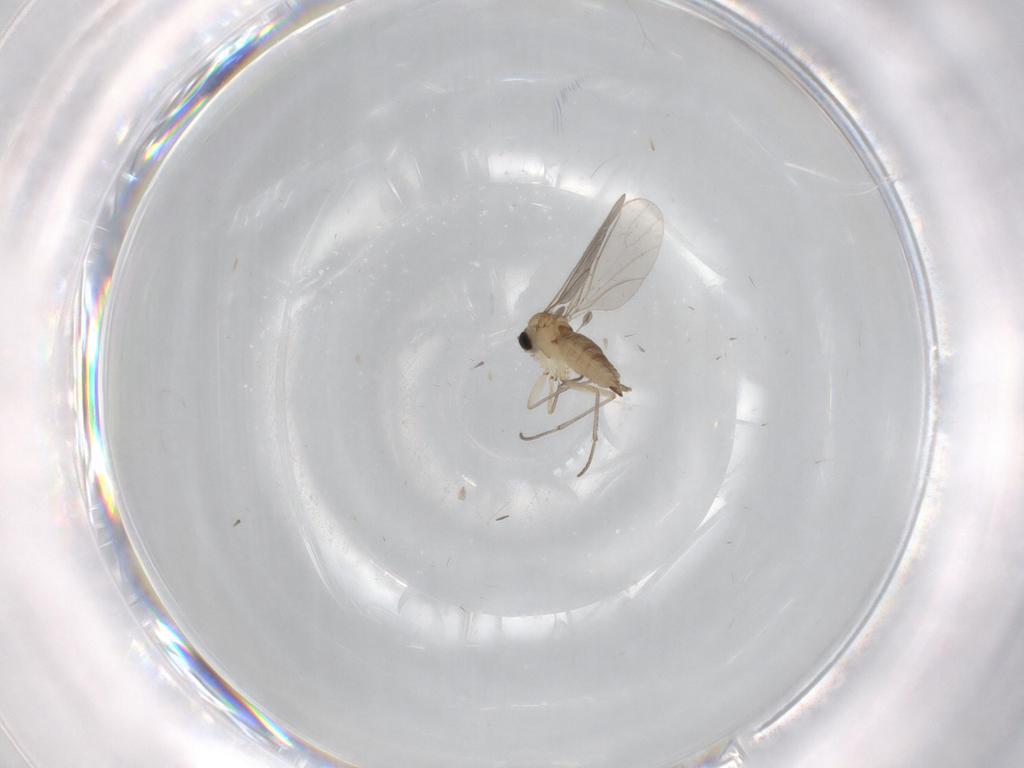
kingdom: Animalia
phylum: Arthropoda
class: Insecta
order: Diptera
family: Sciaridae
